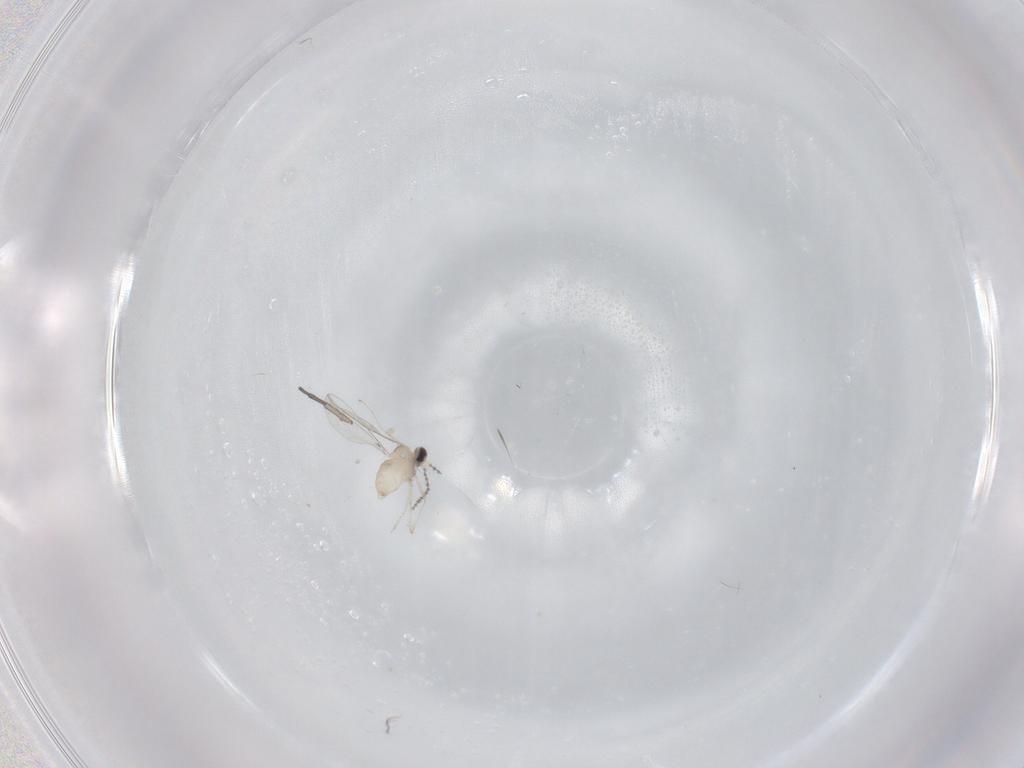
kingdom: Animalia
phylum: Arthropoda
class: Insecta
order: Diptera
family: Cecidomyiidae
